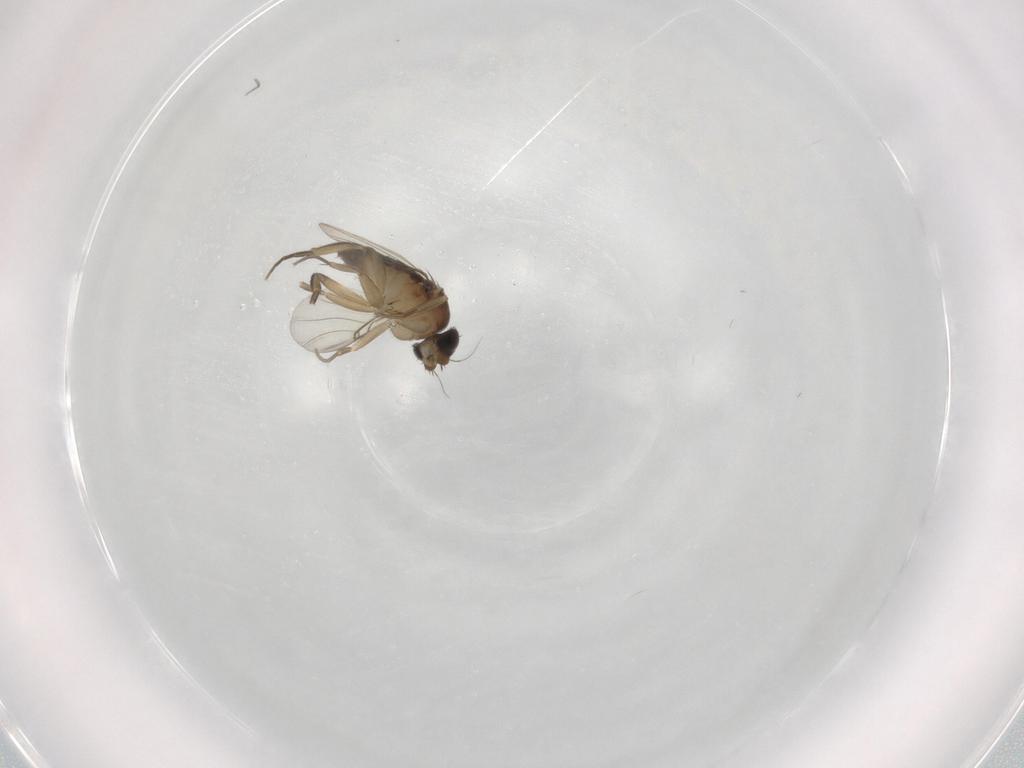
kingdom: Animalia
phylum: Arthropoda
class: Insecta
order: Diptera
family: Phoridae
